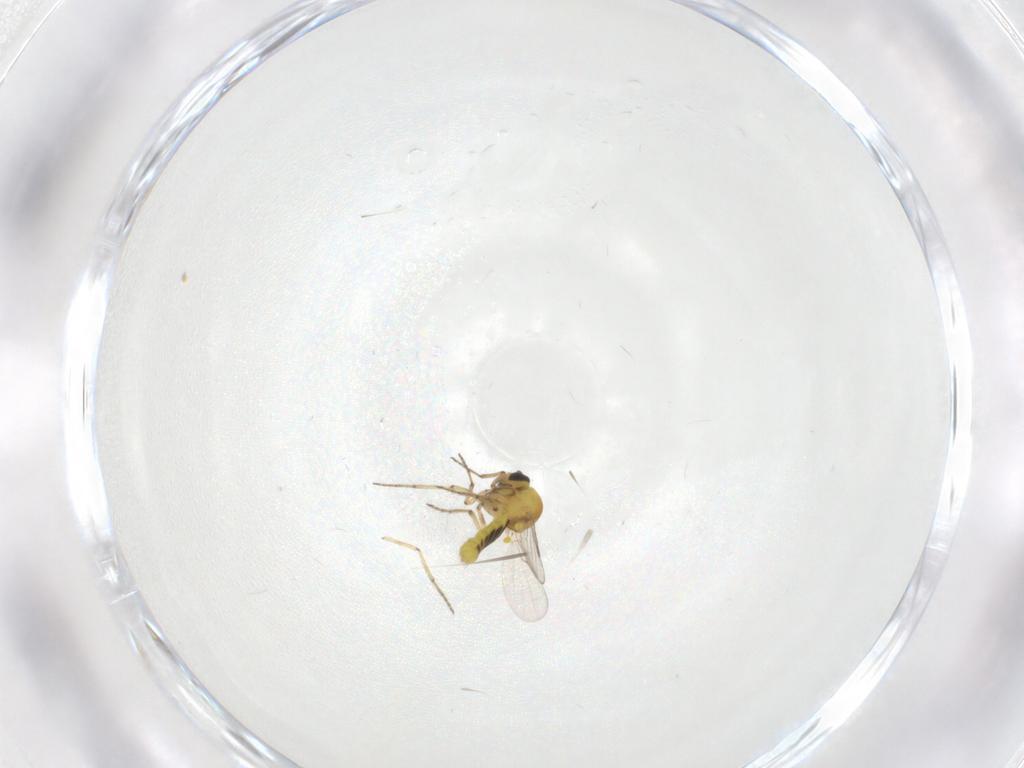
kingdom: Animalia
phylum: Arthropoda
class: Insecta
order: Diptera
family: Ceratopogonidae
